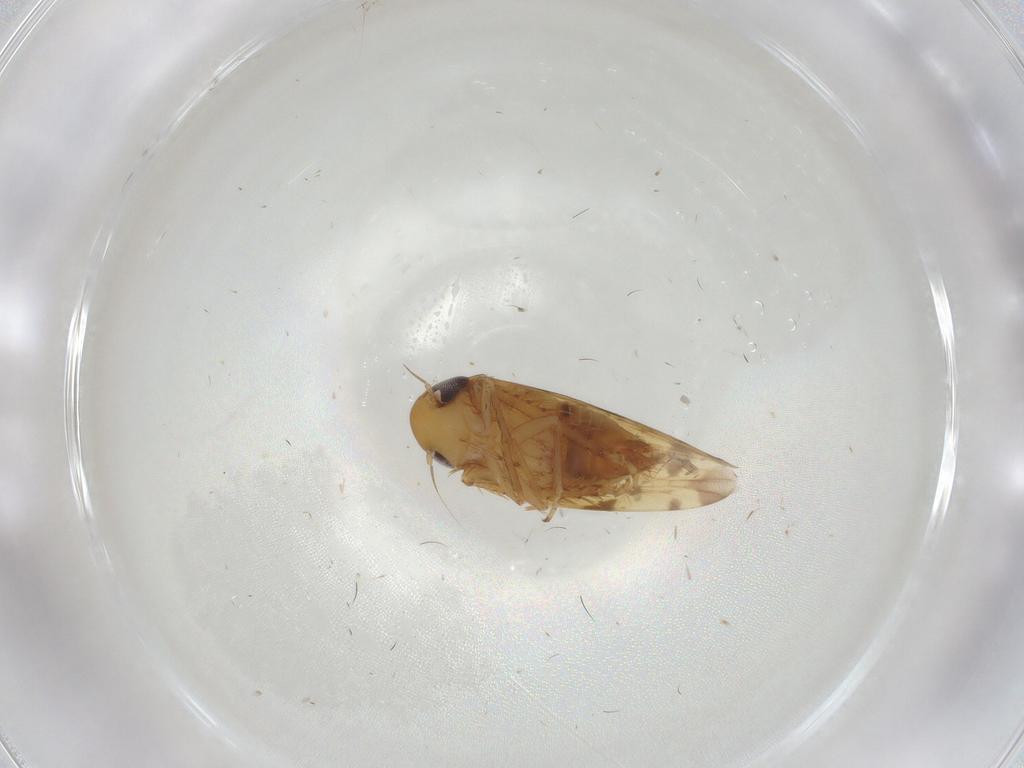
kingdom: Animalia
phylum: Arthropoda
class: Insecta
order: Hemiptera
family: Cicadellidae
